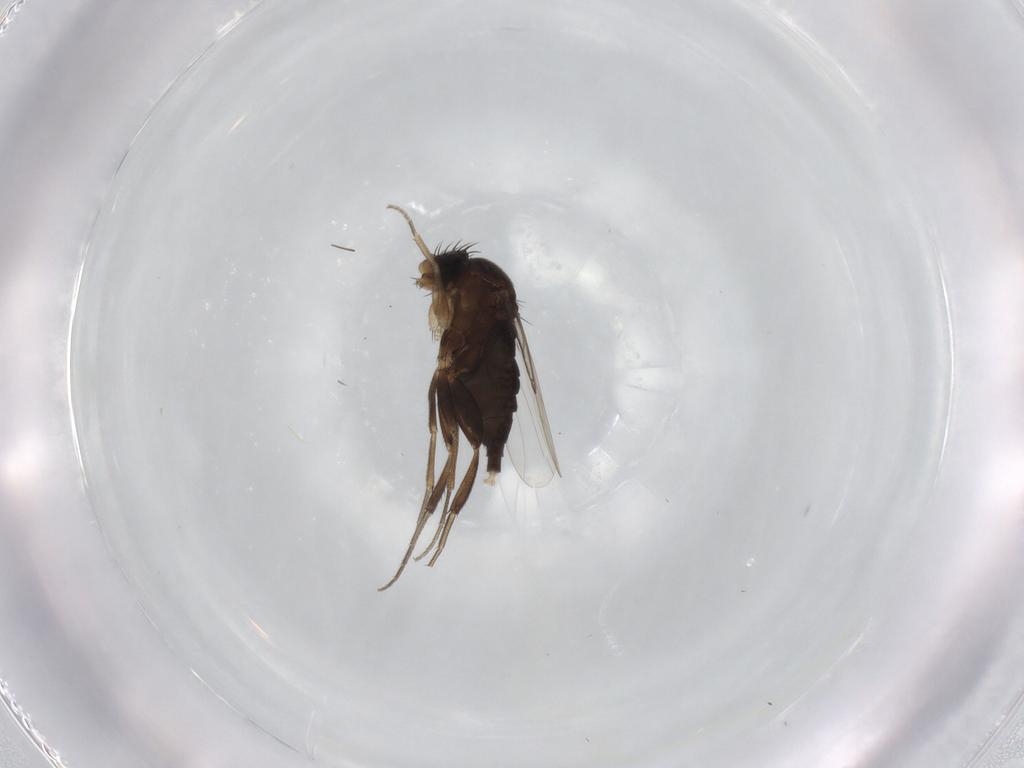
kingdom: Animalia
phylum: Arthropoda
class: Insecta
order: Diptera
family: Phoridae
